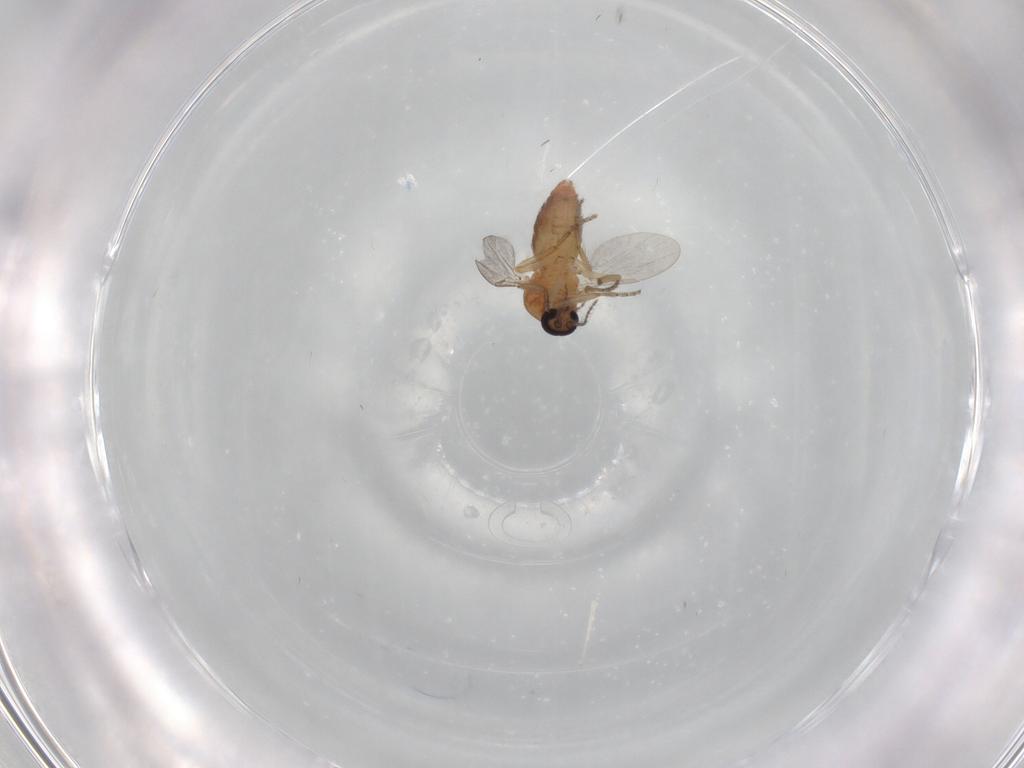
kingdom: Animalia
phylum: Arthropoda
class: Insecta
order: Diptera
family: Ceratopogonidae
